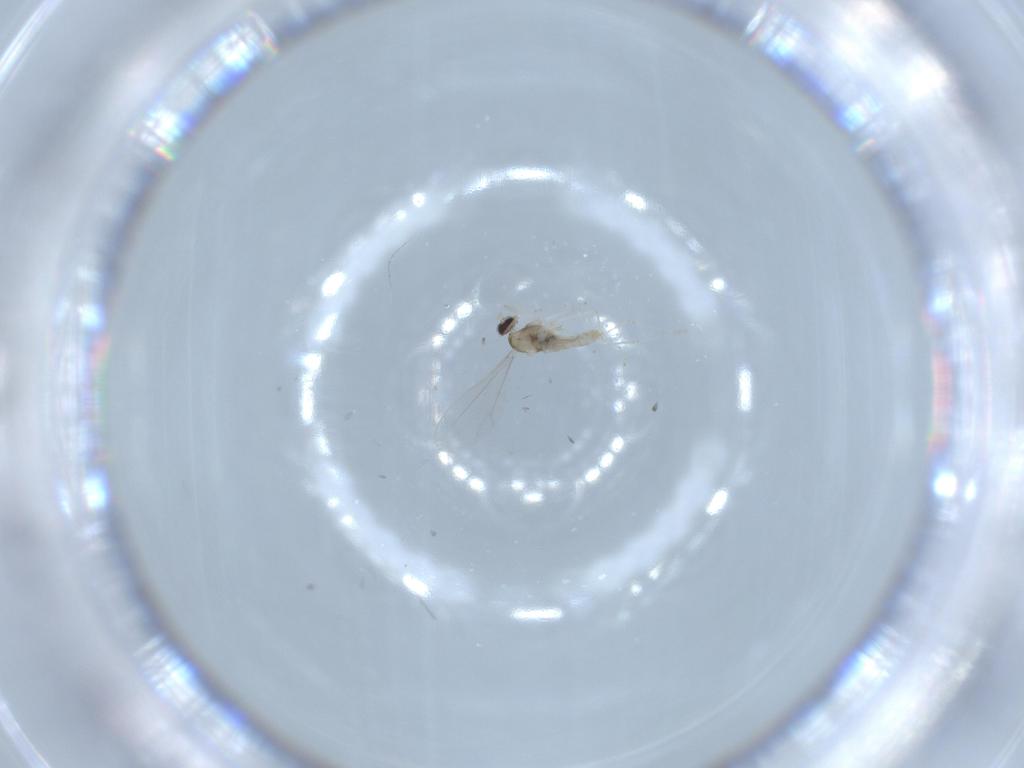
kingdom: Animalia
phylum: Arthropoda
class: Insecta
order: Diptera
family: Cecidomyiidae
